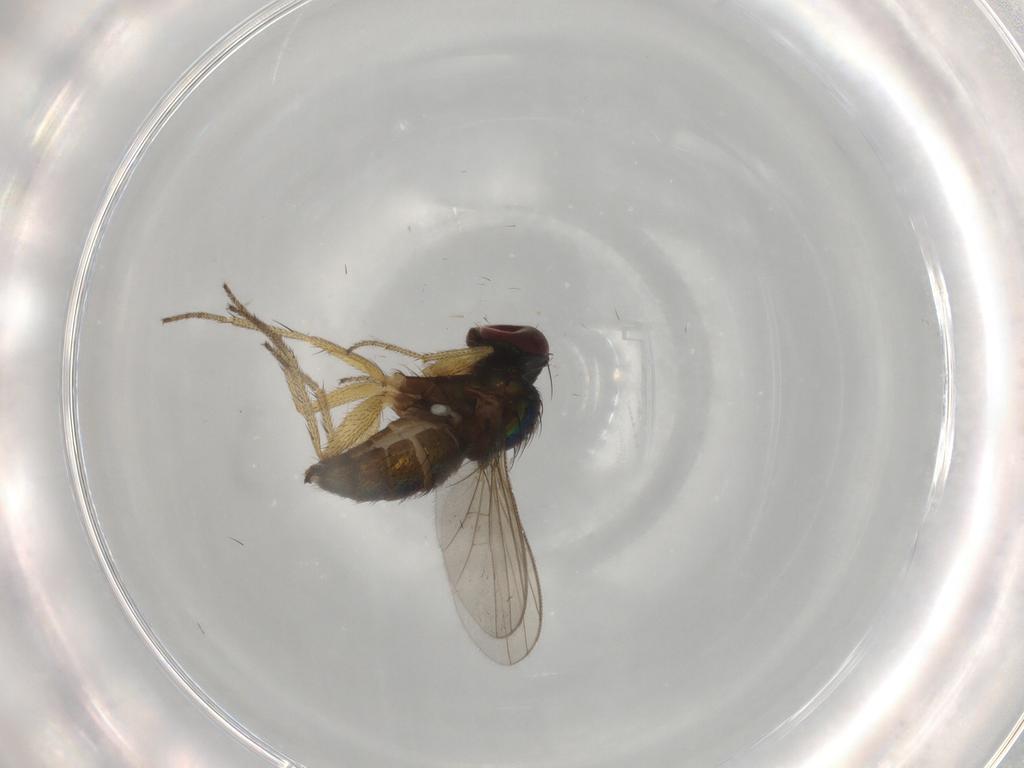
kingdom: Animalia
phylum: Arthropoda
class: Insecta
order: Diptera
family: Dolichopodidae
